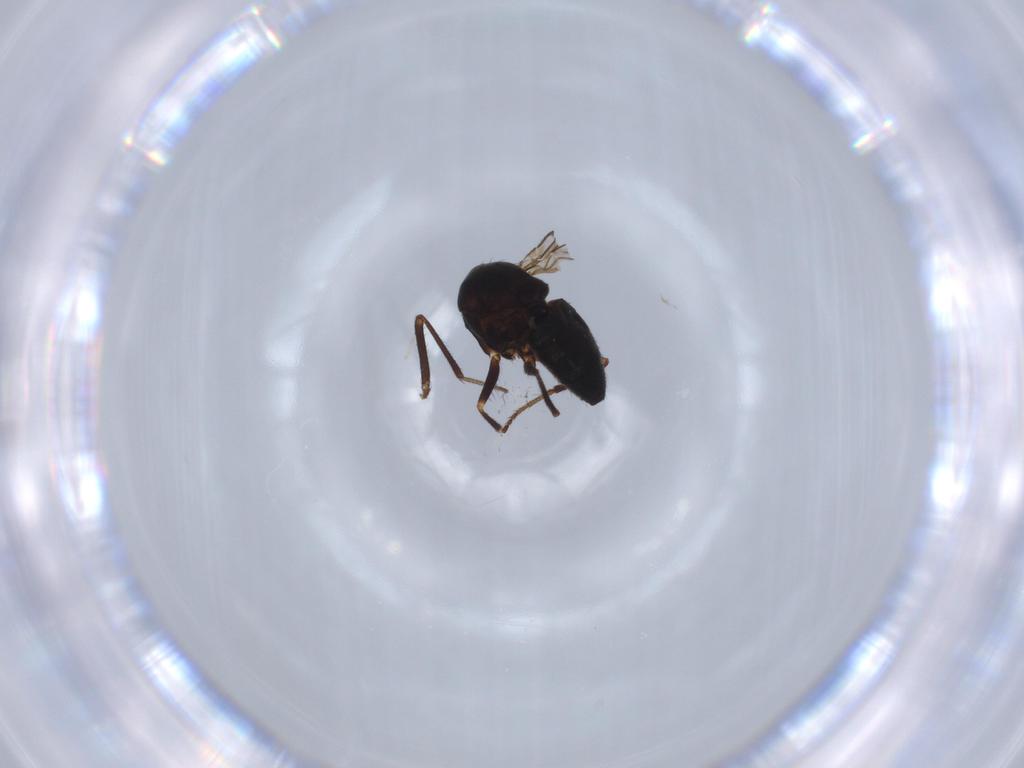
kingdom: Animalia
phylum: Arthropoda
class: Insecta
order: Diptera
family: Ephydridae
